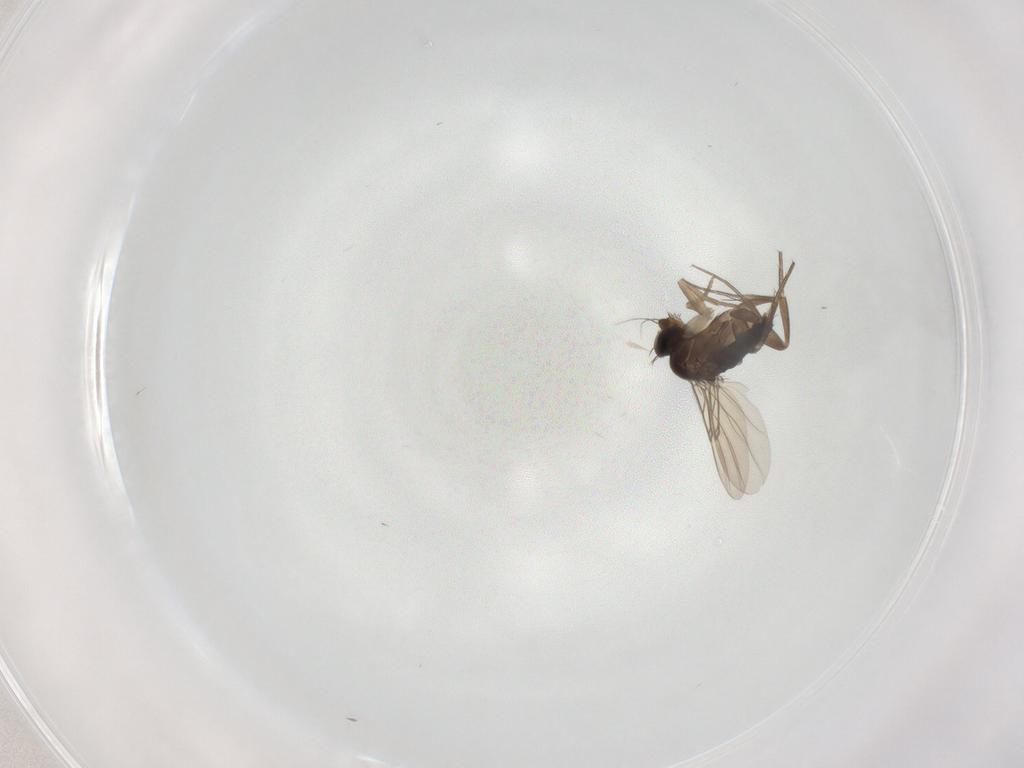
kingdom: Animalia
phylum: Arthropoda
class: Insecta
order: Diptera
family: Phoridae
